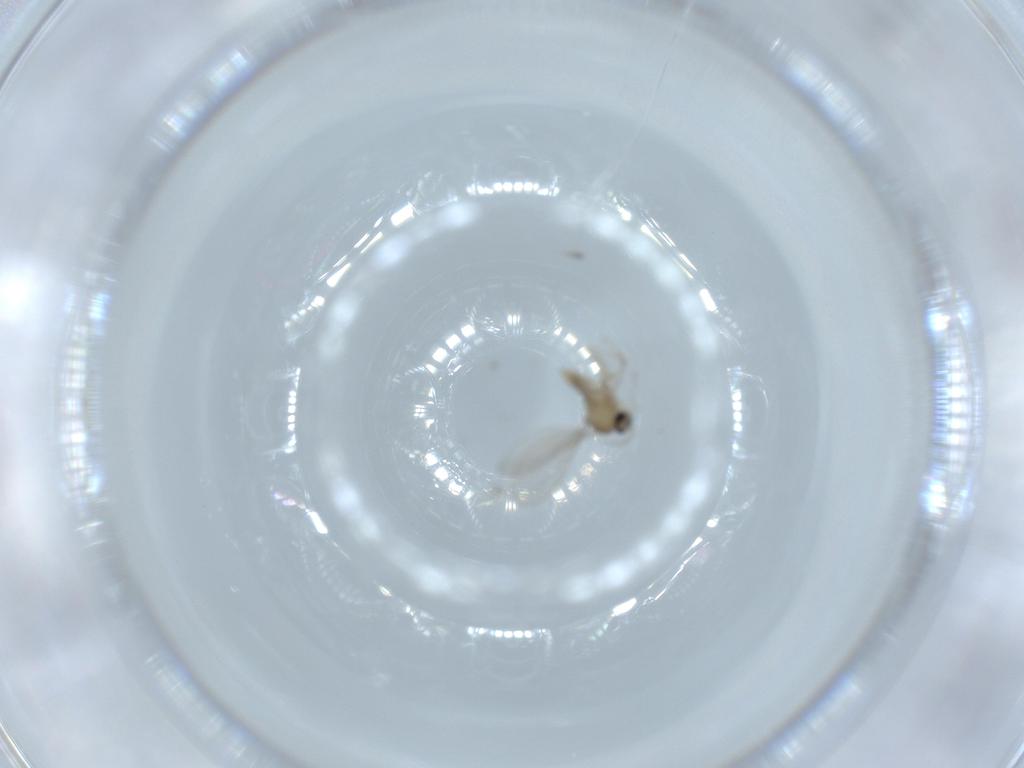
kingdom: Animalia
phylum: Arthropoda
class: Insecta
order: Diptera
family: Cecidomyiidae
